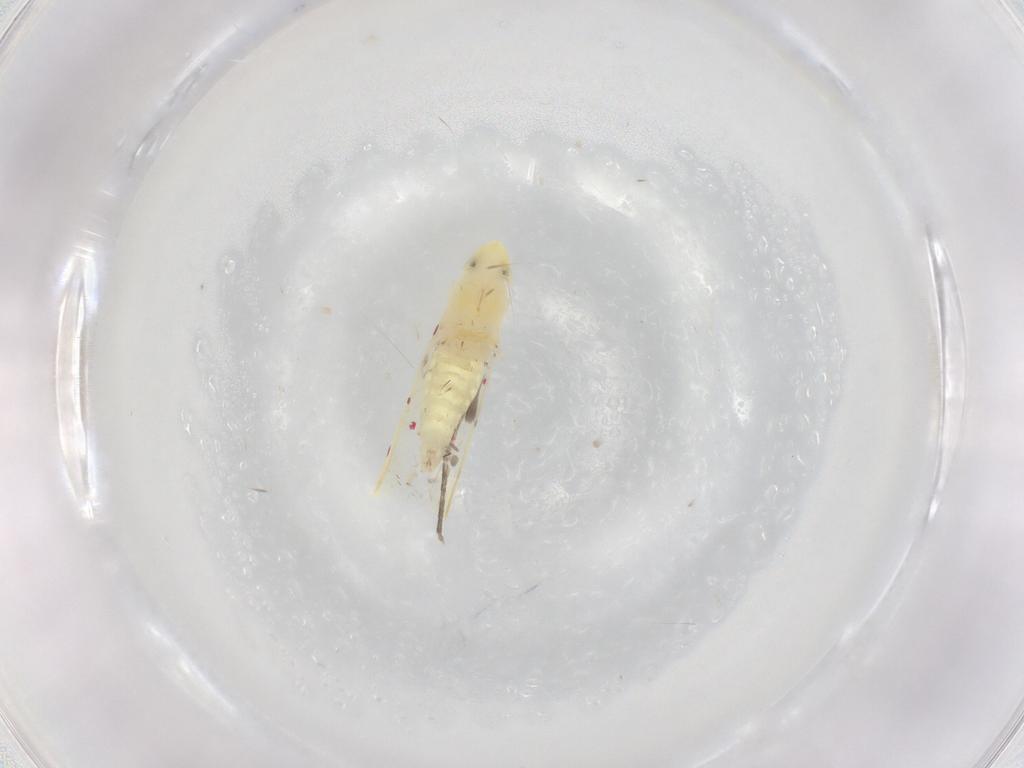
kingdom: Animalia
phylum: Arthropoda
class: Insecta
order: Hemiptera
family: Cicadellidae
